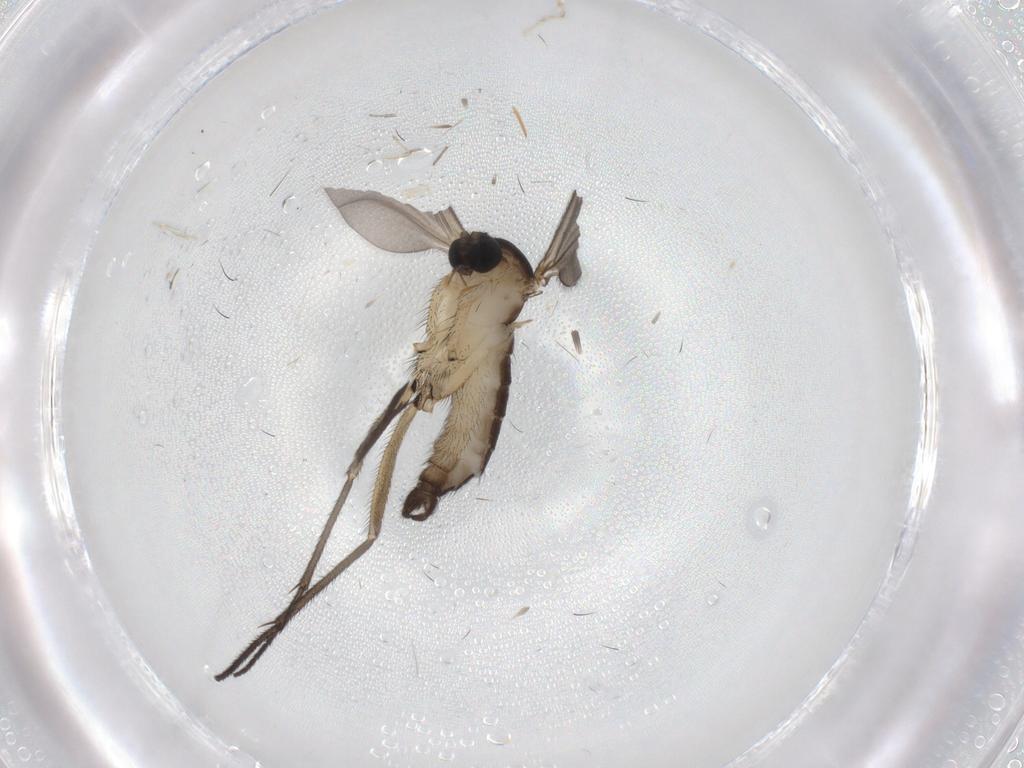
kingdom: Animalia
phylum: Arthropoda
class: Insecta
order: Diptera
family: Sciaridae
